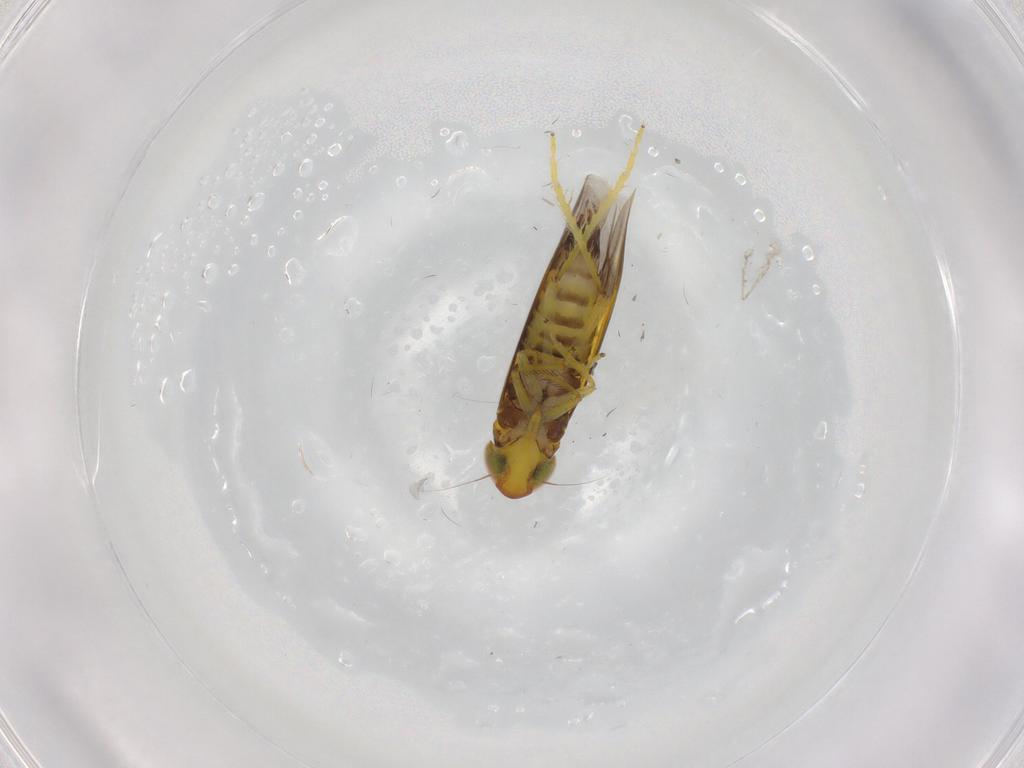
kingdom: Animalia
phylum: Arthropoda
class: Insecta
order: Hemiptera
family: Cicadellidae
